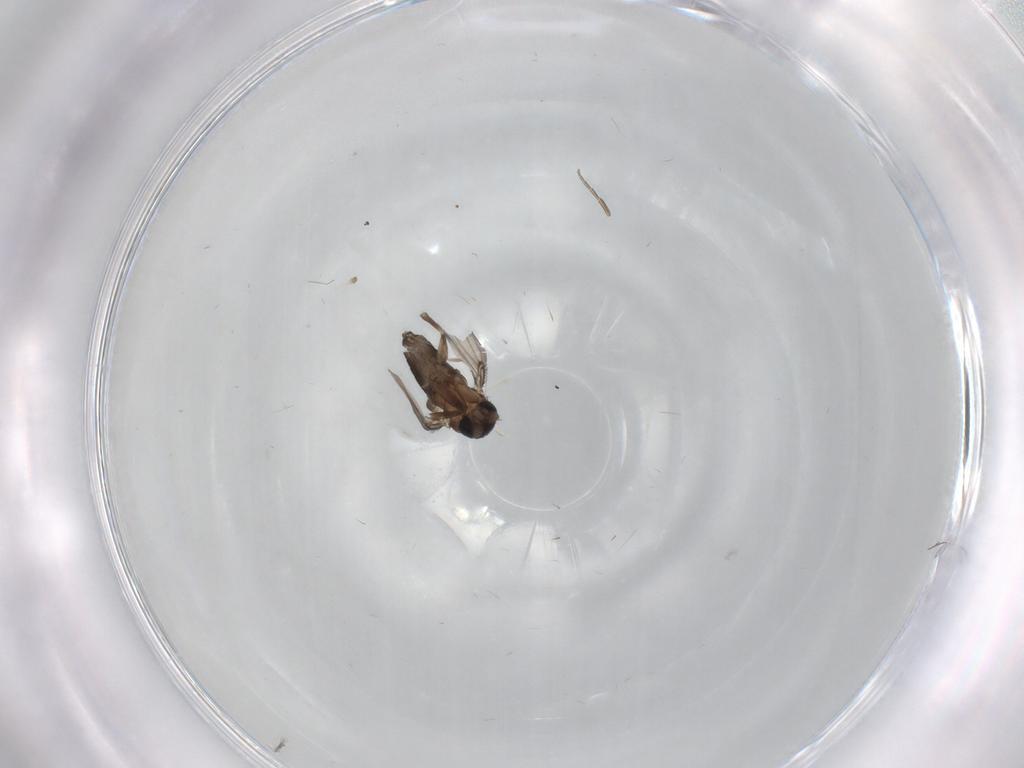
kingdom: Animalia
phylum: Arthropoda
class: Insecta
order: Diptera
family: Phoridae
